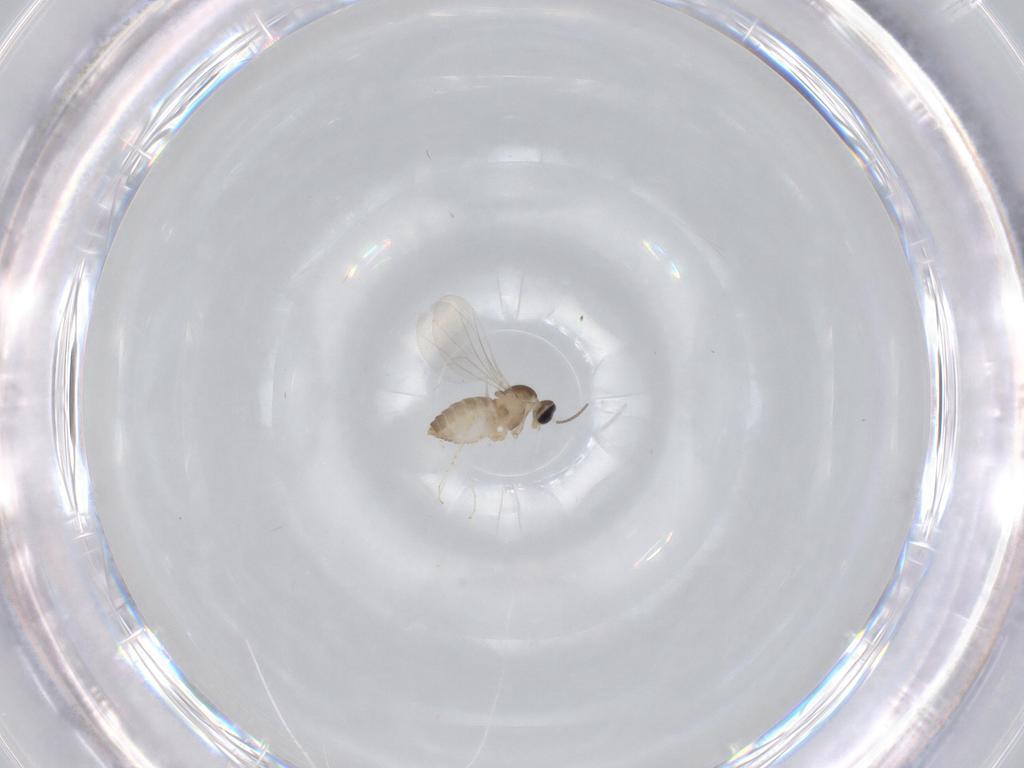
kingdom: Animalia
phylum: Arthropoda
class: Insecta
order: Diptera
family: Cecidomyiidae
